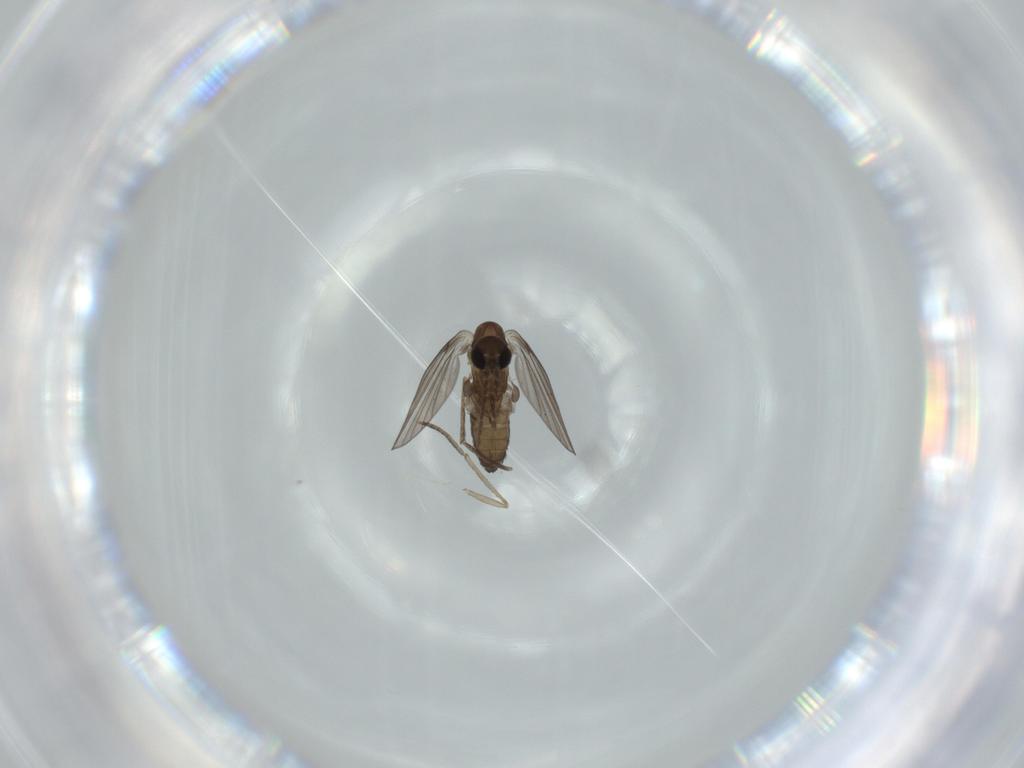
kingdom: Animalia
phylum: Arthropoda
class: Insecta
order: Diptera
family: Psychodidae
